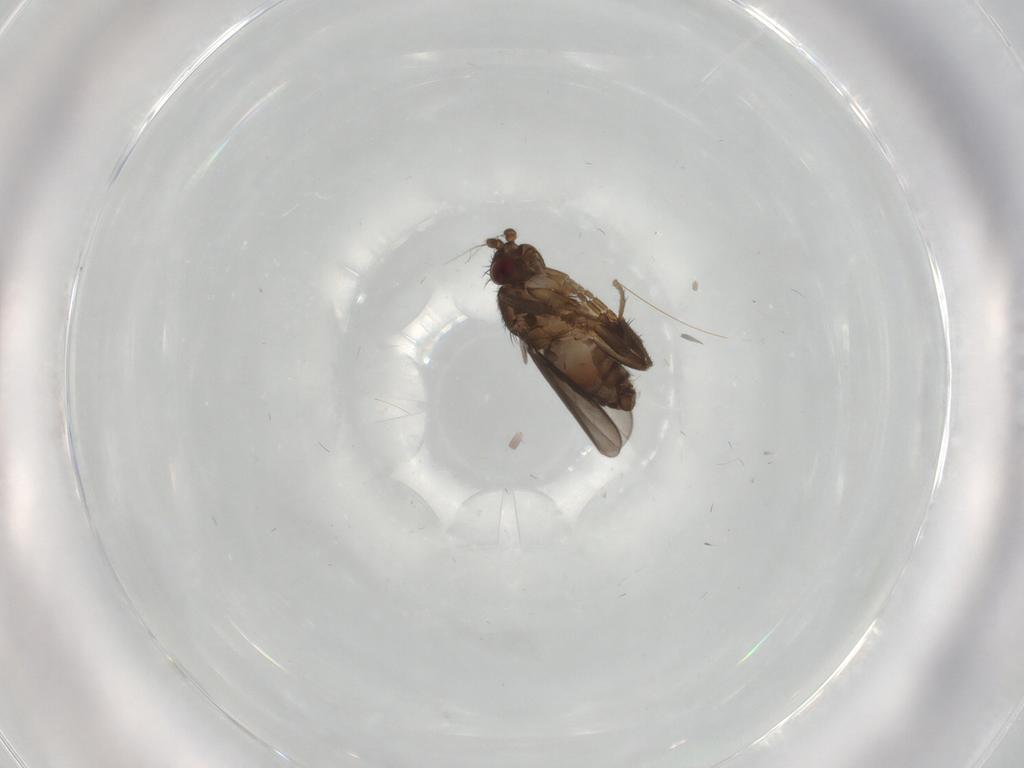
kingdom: Animalia
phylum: Arthropoda
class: Insecta
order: Diptera
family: Sphaeroceridae
